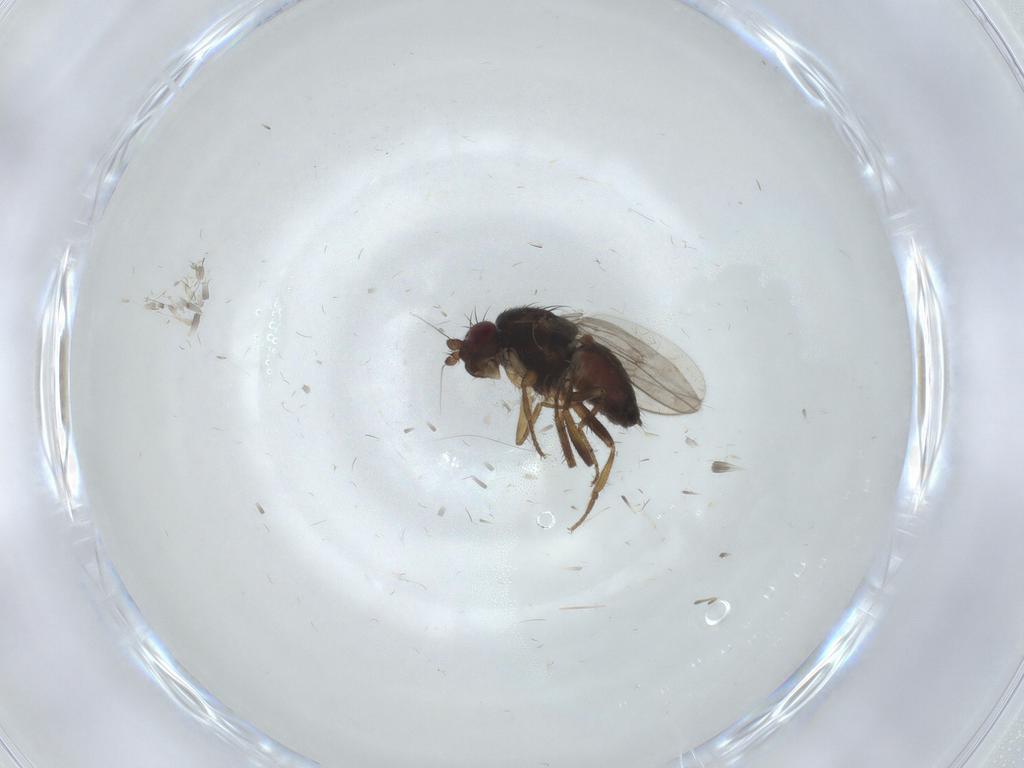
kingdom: Animalia
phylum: Arthropoda
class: Insecta
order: Diptera
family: Sphaeroceridae
